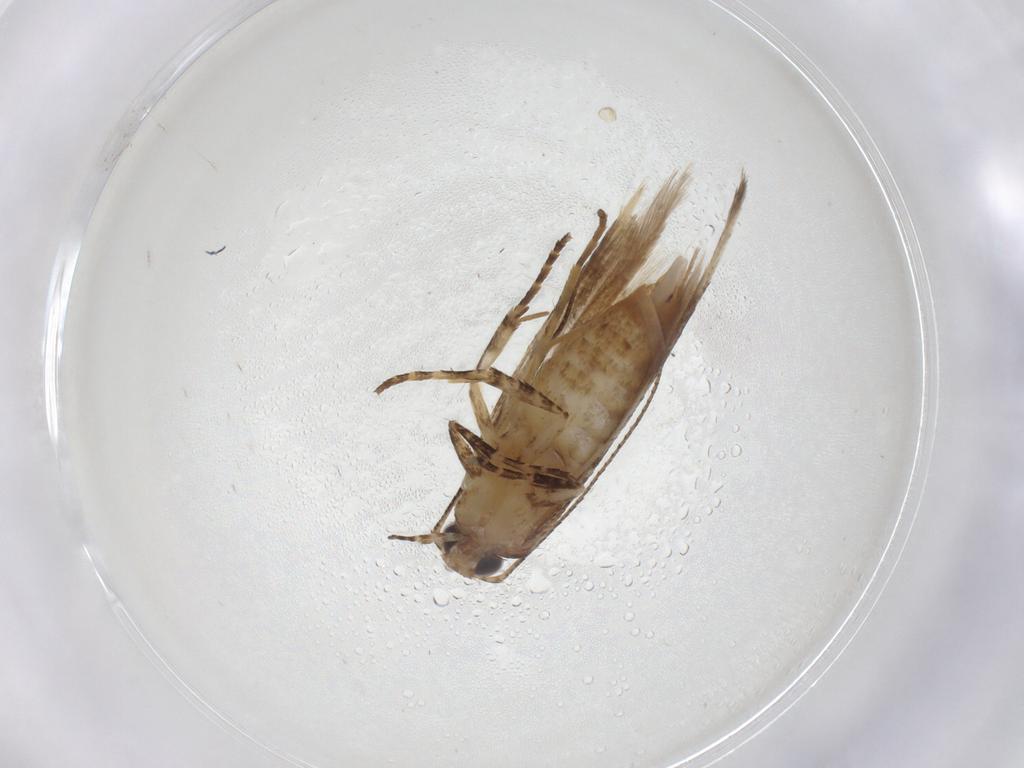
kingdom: Animalia
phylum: Arthropoda
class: Insecta
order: Lepidoptera
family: Gelechiidae
